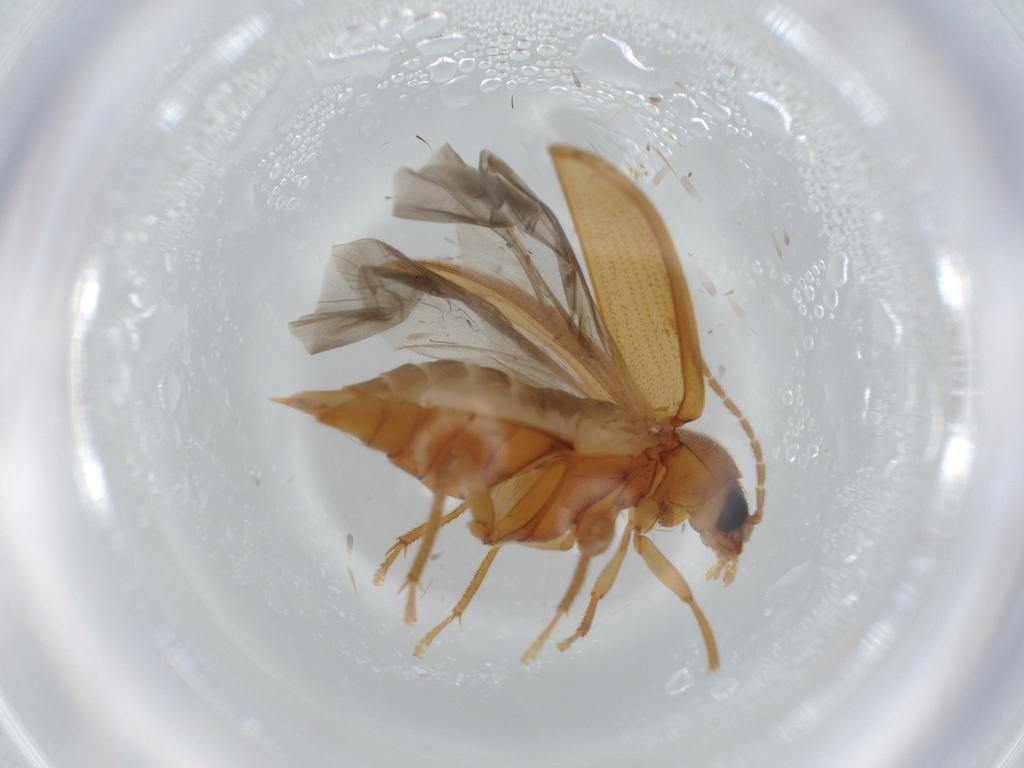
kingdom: Animalia
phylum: Arthropoda
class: Insecta
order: Coleoptera
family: Ptilodactylidae
